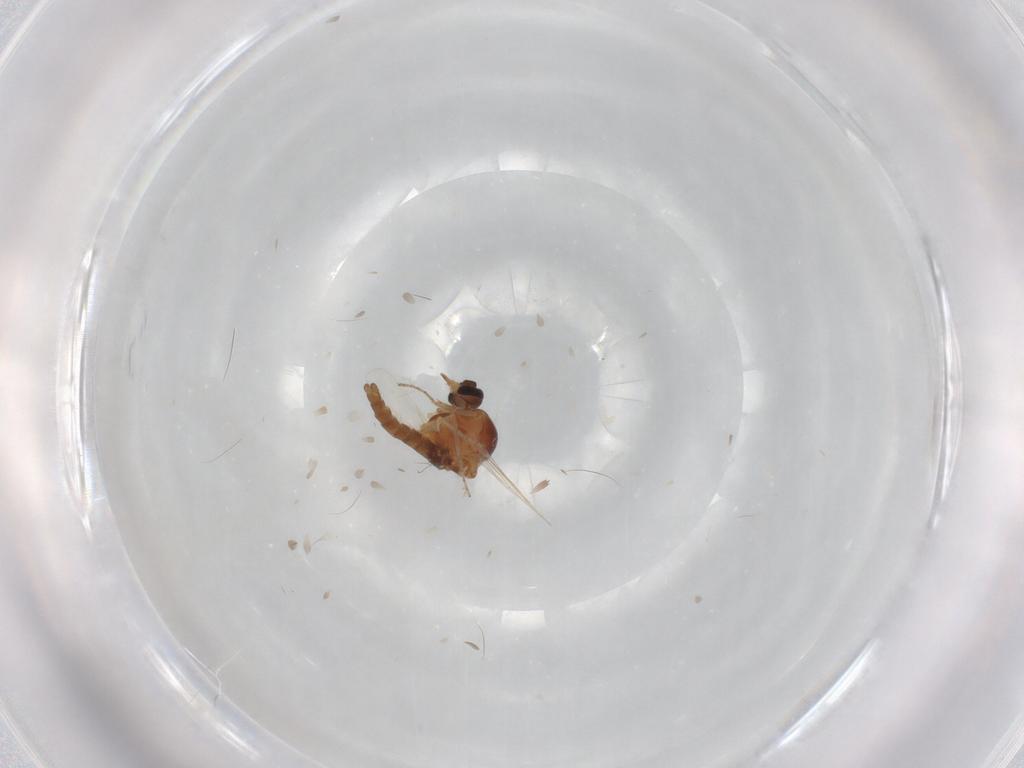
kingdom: Animalia
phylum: Arthropoda
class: Insecta
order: Diptera
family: Ceratopogonidae
